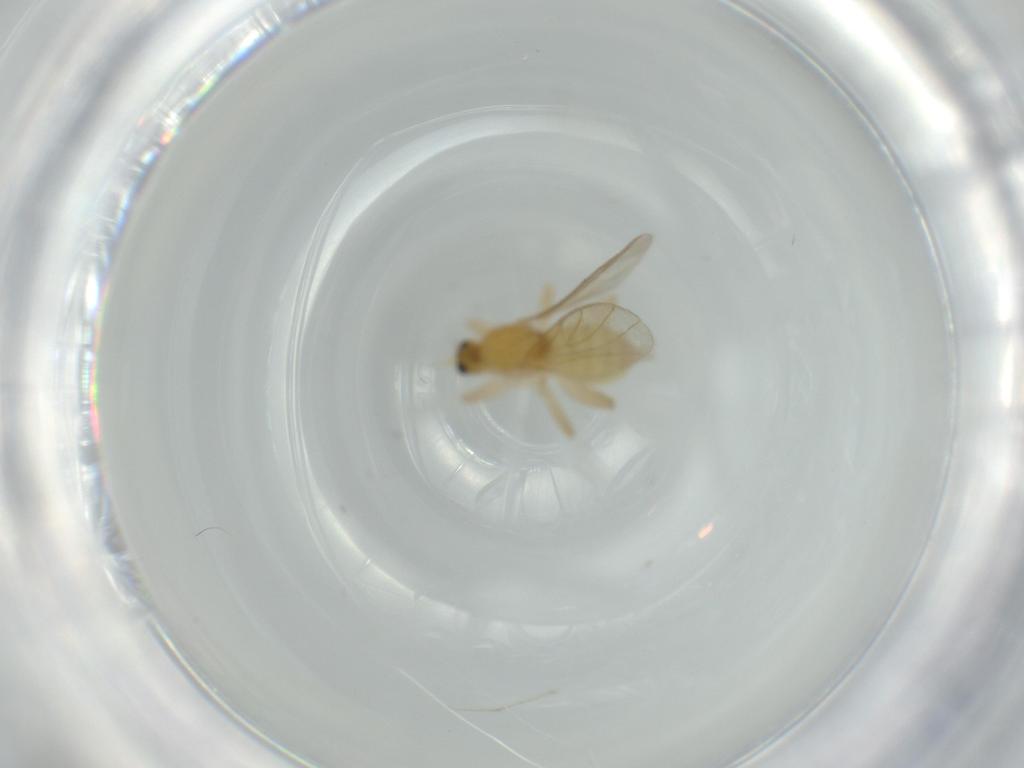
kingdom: Animalia
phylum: Arthropoda
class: Insecta
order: Diptera
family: Hybotidae
